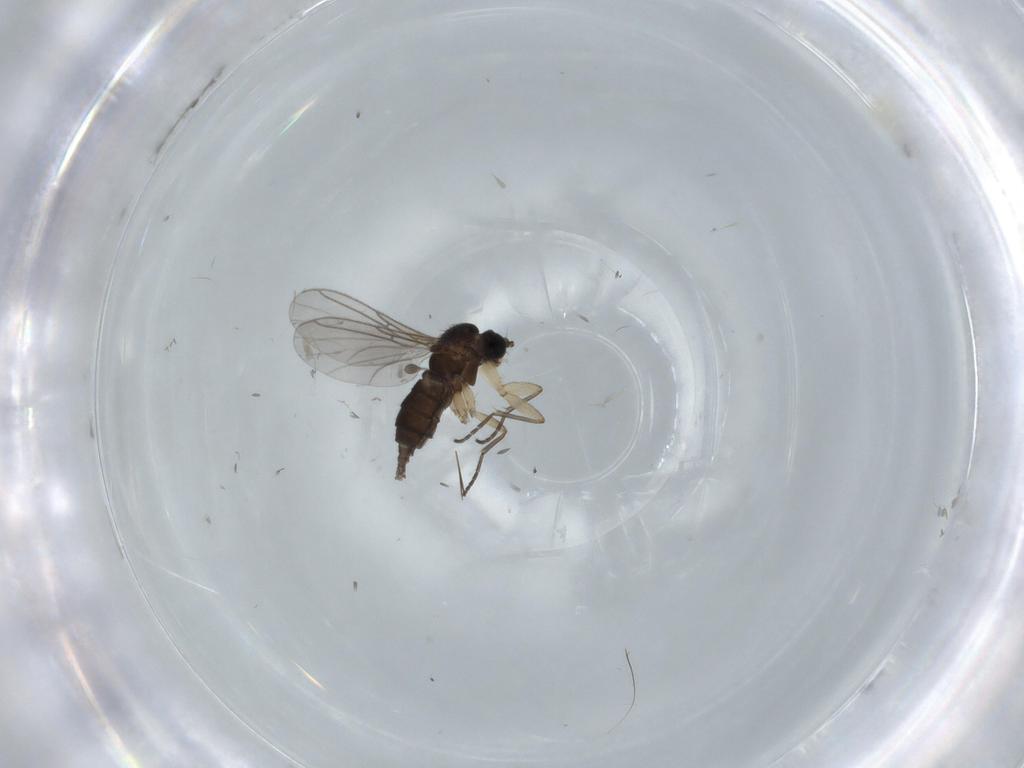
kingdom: Animalia
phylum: Arthropoda
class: Insecta
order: Diptera
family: Sciaridae
